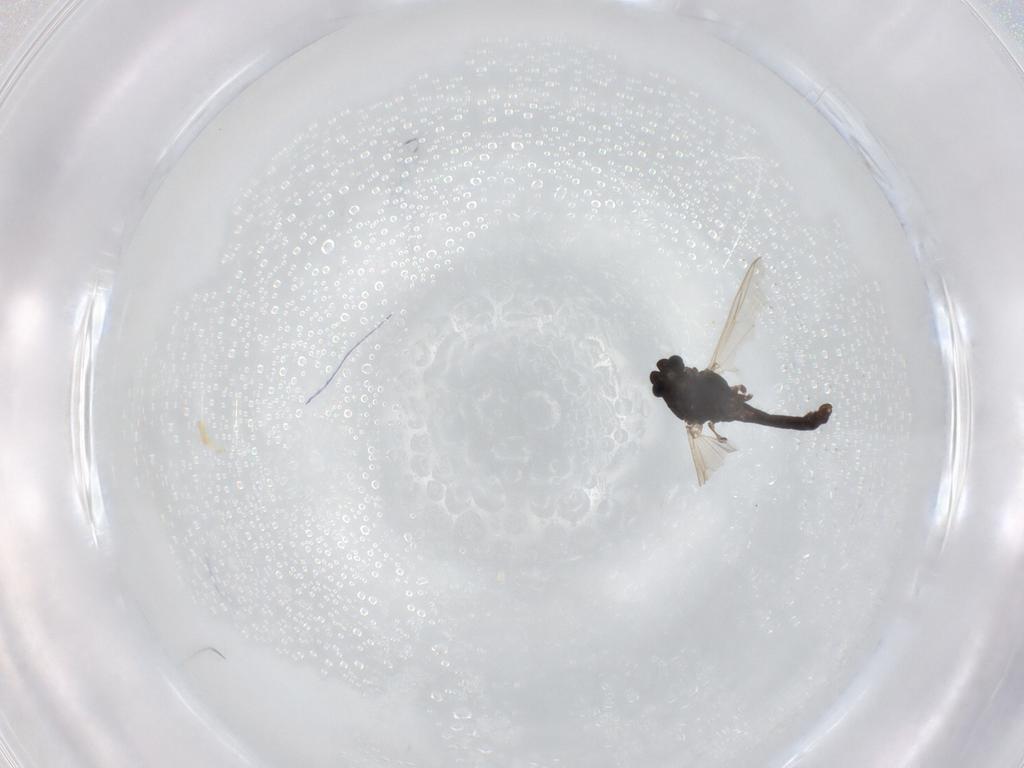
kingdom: Animalia
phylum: Arthropoda
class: Insecta
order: Diptera
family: Chironomidae
